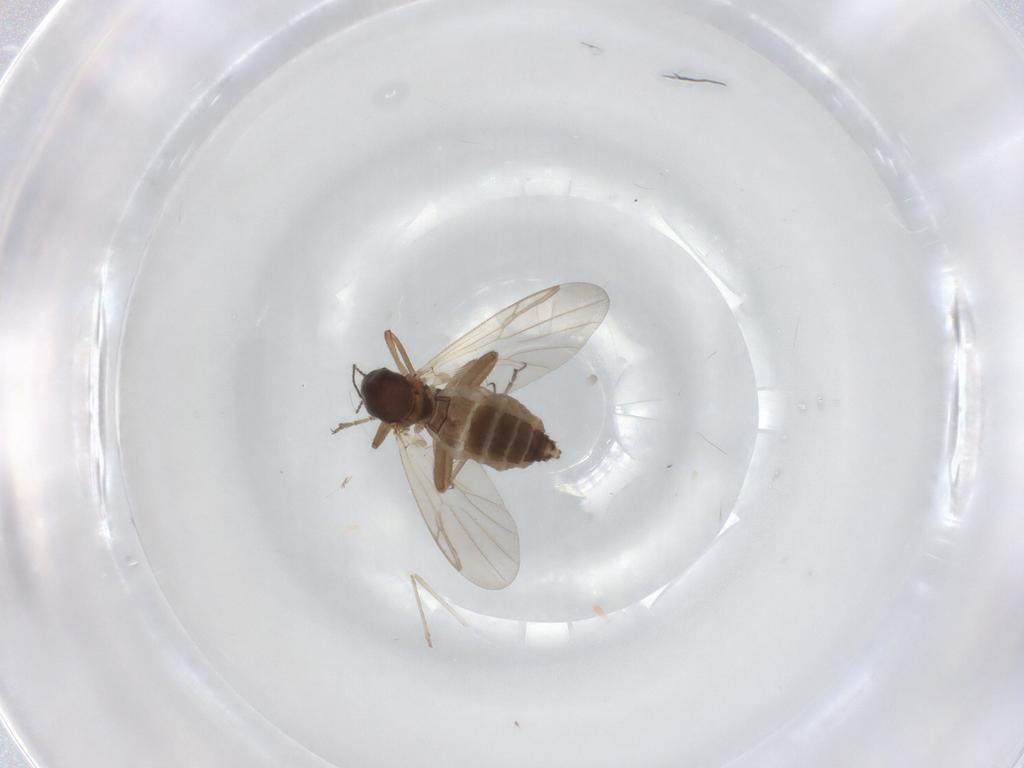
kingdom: Animalia
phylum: Arthropoda
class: Insecta
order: Diptera
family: Ceratopogonidae
